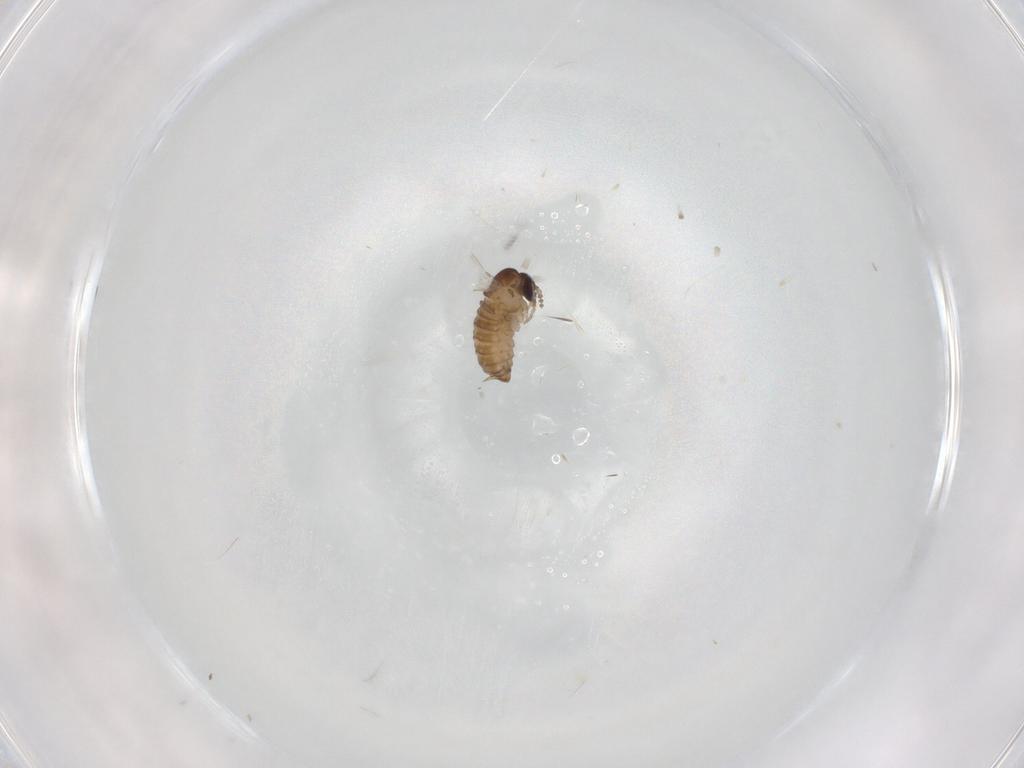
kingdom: Animalia
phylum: Arthropoda
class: Insecta
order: Diptera
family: Psychodidae
